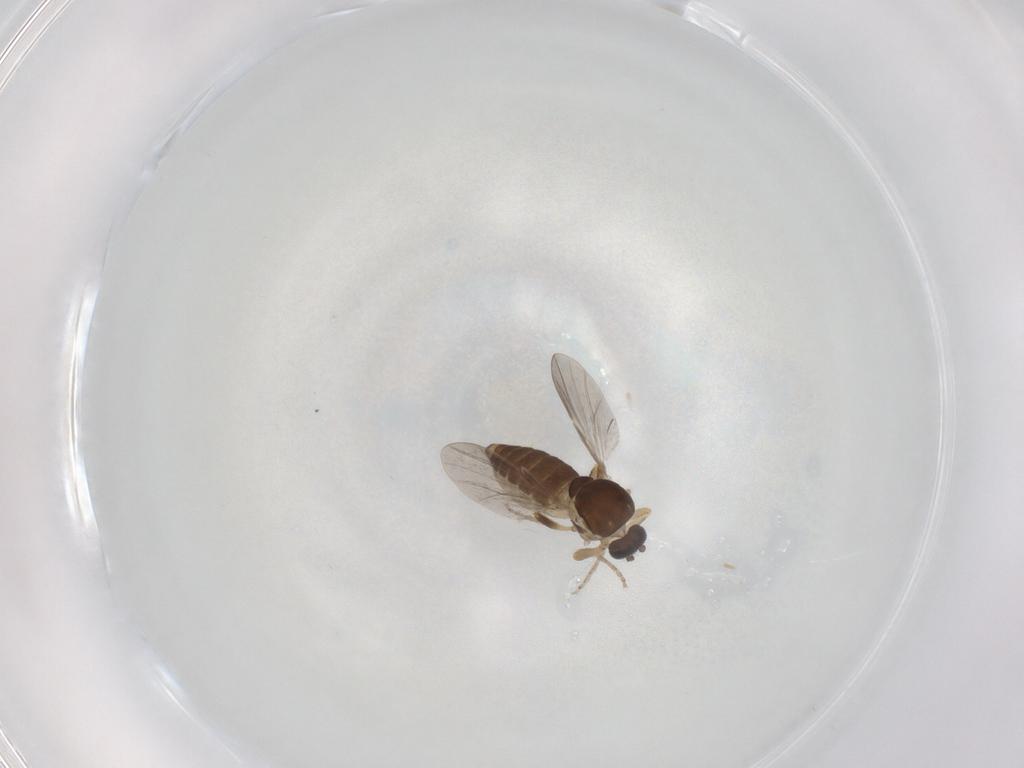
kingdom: Animalia
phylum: Arthropoda
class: Insecta
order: Diptera
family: Ceratopogonidae
